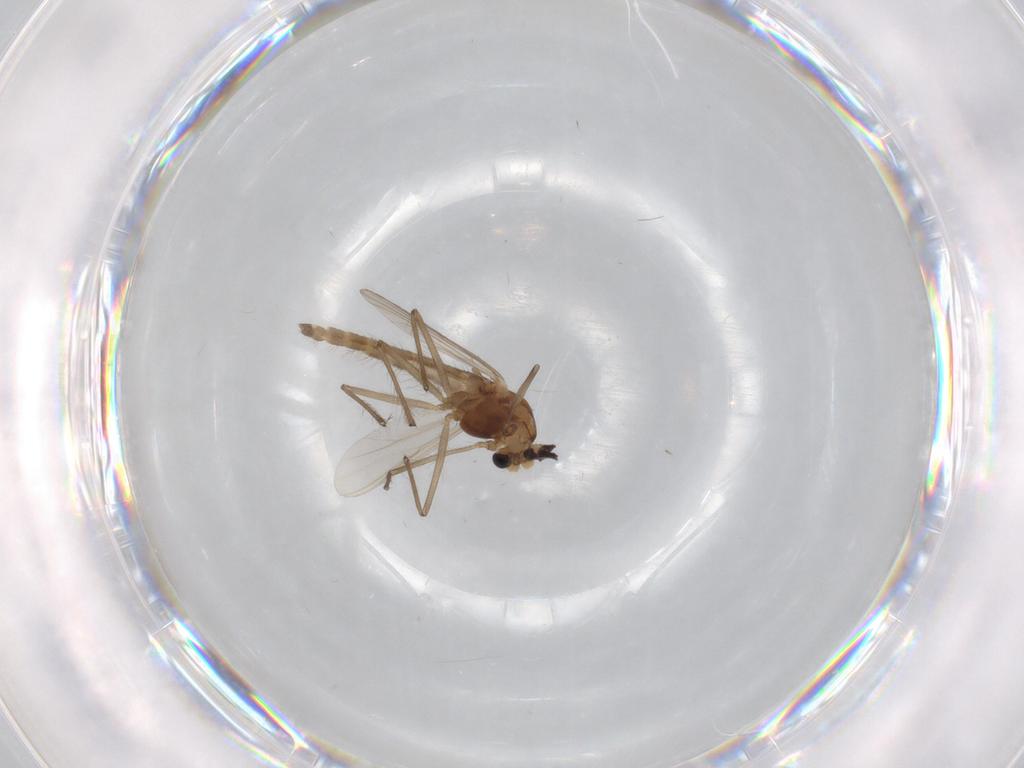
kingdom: Animalia
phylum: Arthropoda
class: Insecta
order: Diptera
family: Chironomidae
